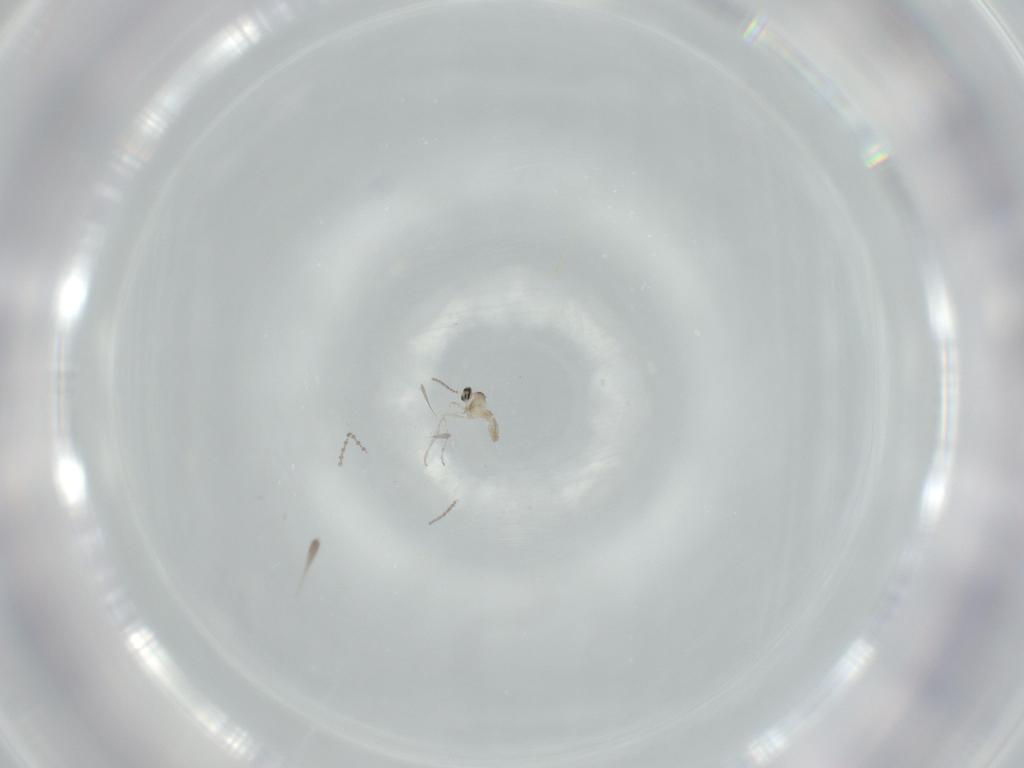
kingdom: Animalia
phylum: Arthropoda
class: Insecta
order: Diptera
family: Cecidomyiidae
